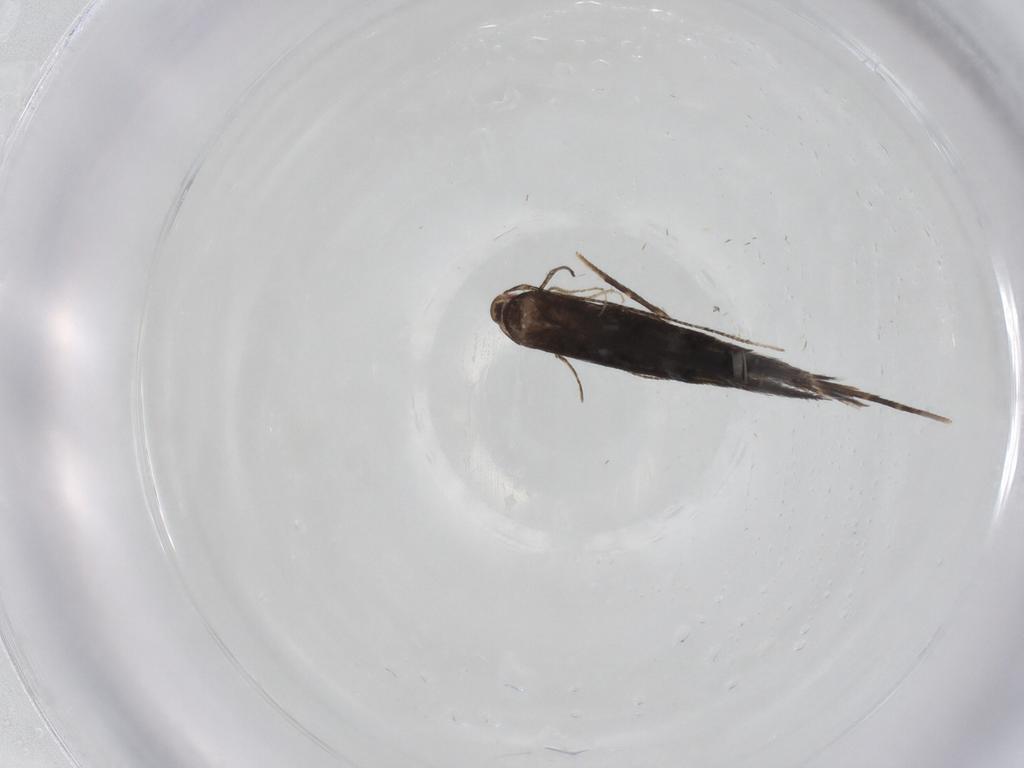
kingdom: Animalia
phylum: Arthropoda
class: Insecta
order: Lepidoptera
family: Cosmopterigidae
